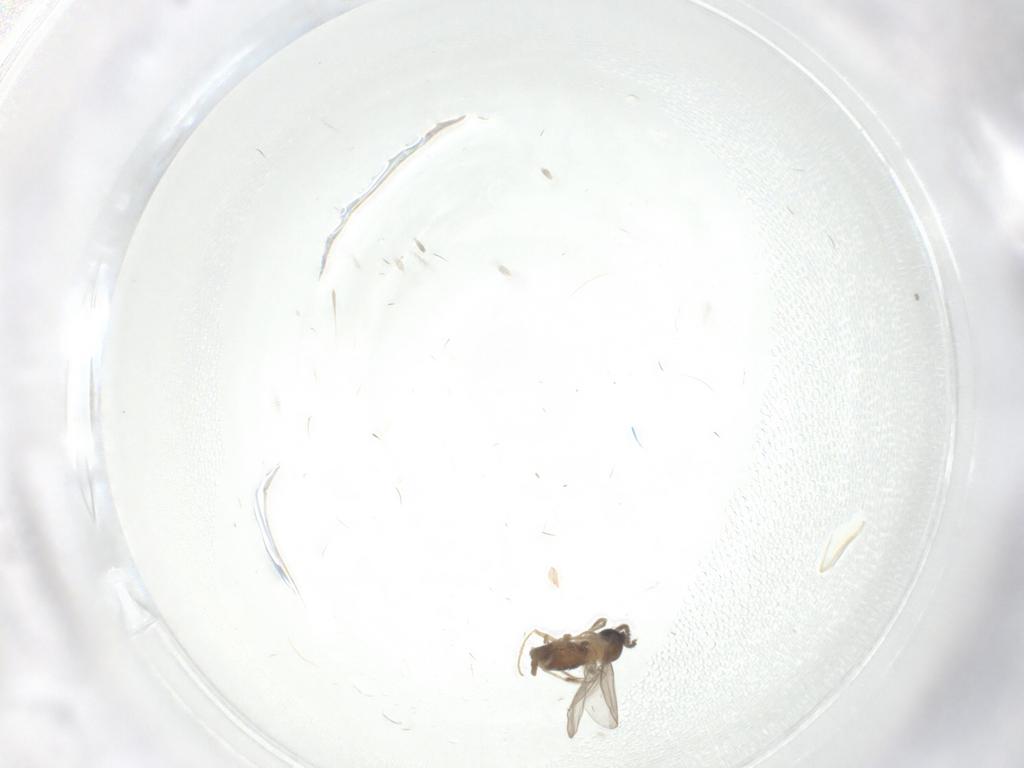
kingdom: Animalia
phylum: Arthropoda
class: Insecta
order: Diptera
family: Sciaridae
